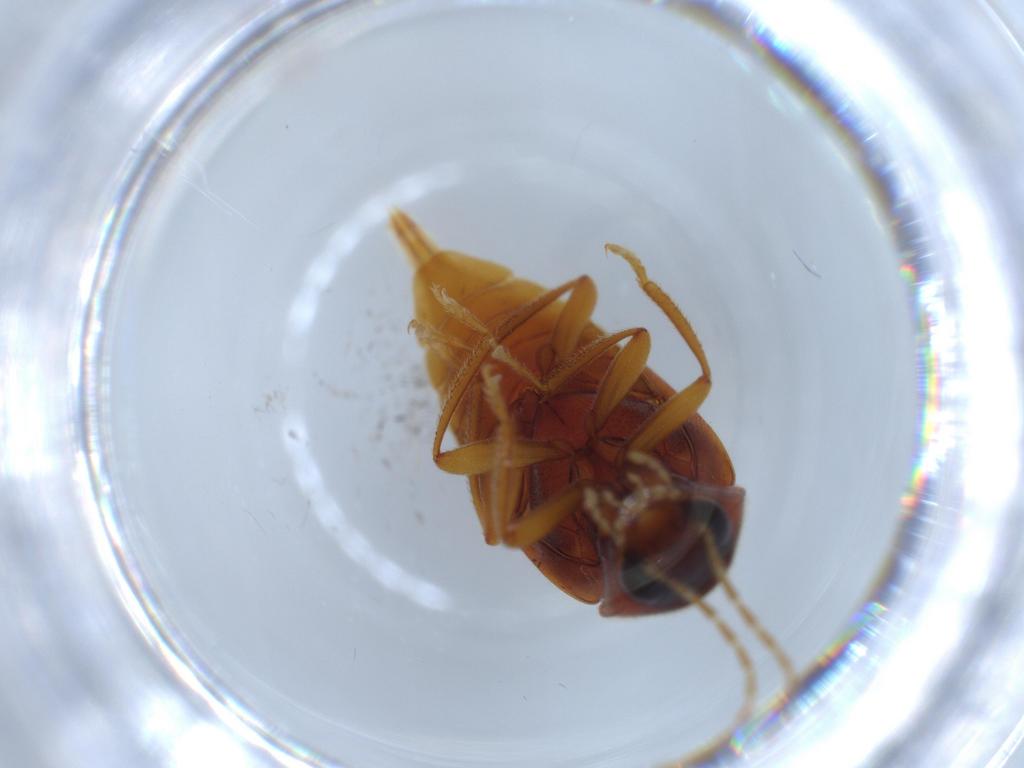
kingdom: Animalia
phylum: Arthropoda
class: Insecta
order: Coleoptera
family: Ptilodactylidae
